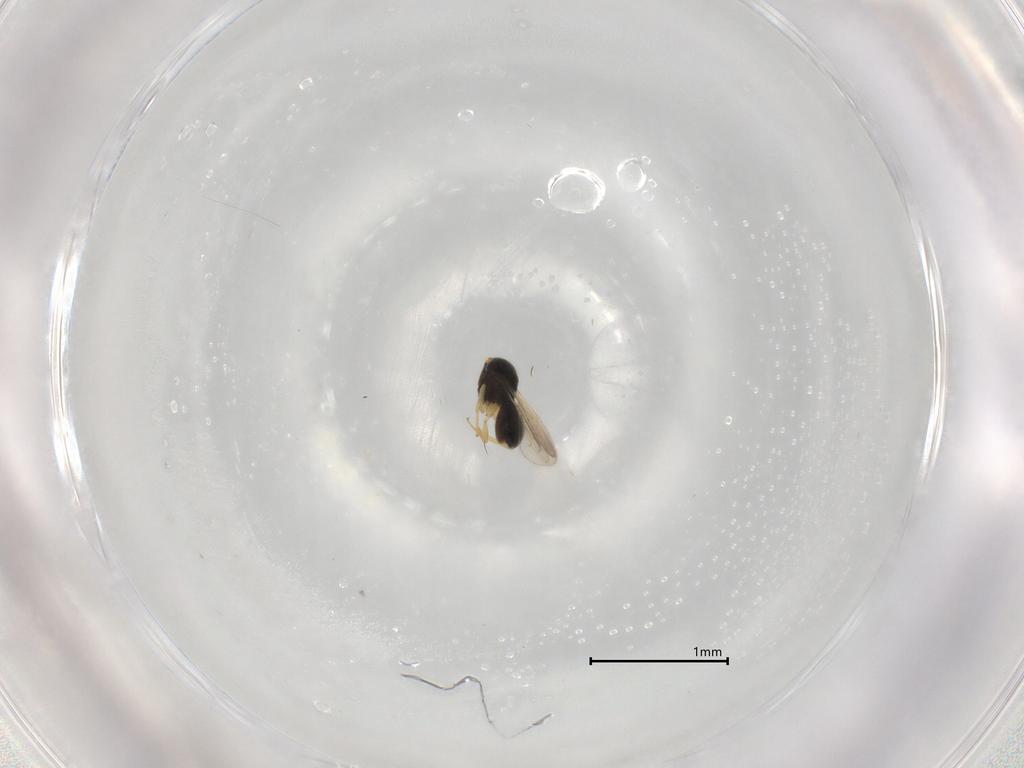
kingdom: Animalia
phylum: Arthropoda
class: Insecta
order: Hymenoptera
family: Scelionidae
